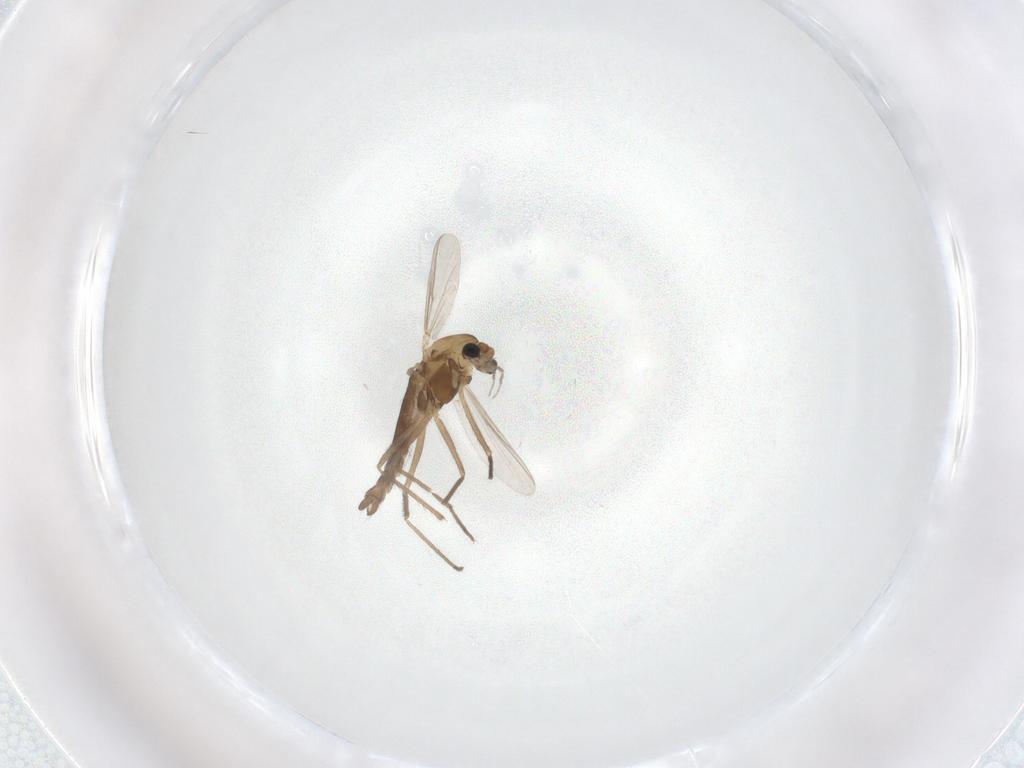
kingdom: Animalia
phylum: Arthropoda
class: Insecta
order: Diptera
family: Chironomidae
